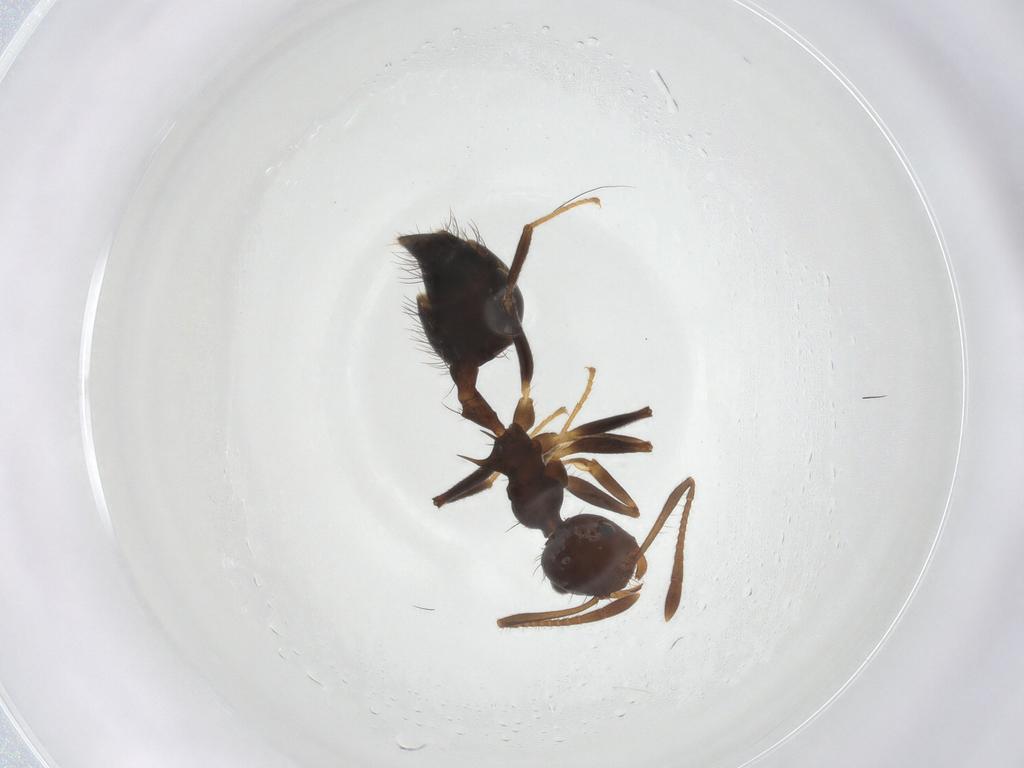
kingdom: Animalia
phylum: Arthropoda
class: Insecta
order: Hymenoptera
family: Formicidae
